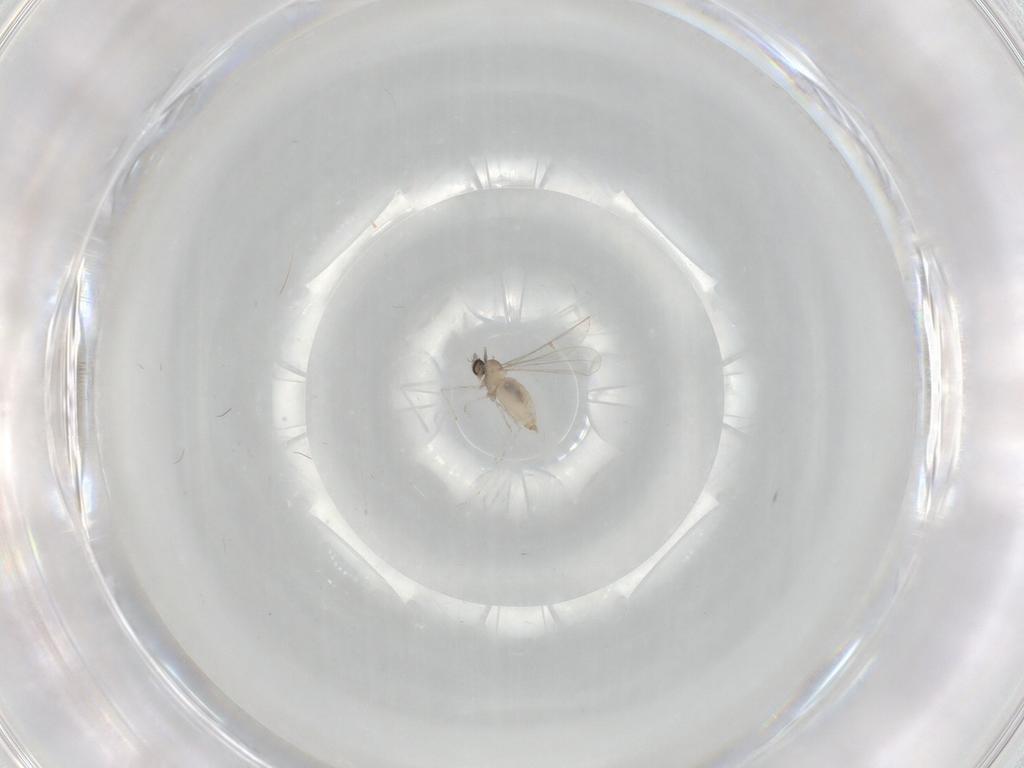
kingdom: Animalia
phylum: Arthropoda
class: Insecta
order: Diptera
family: Cecidomyiidae
